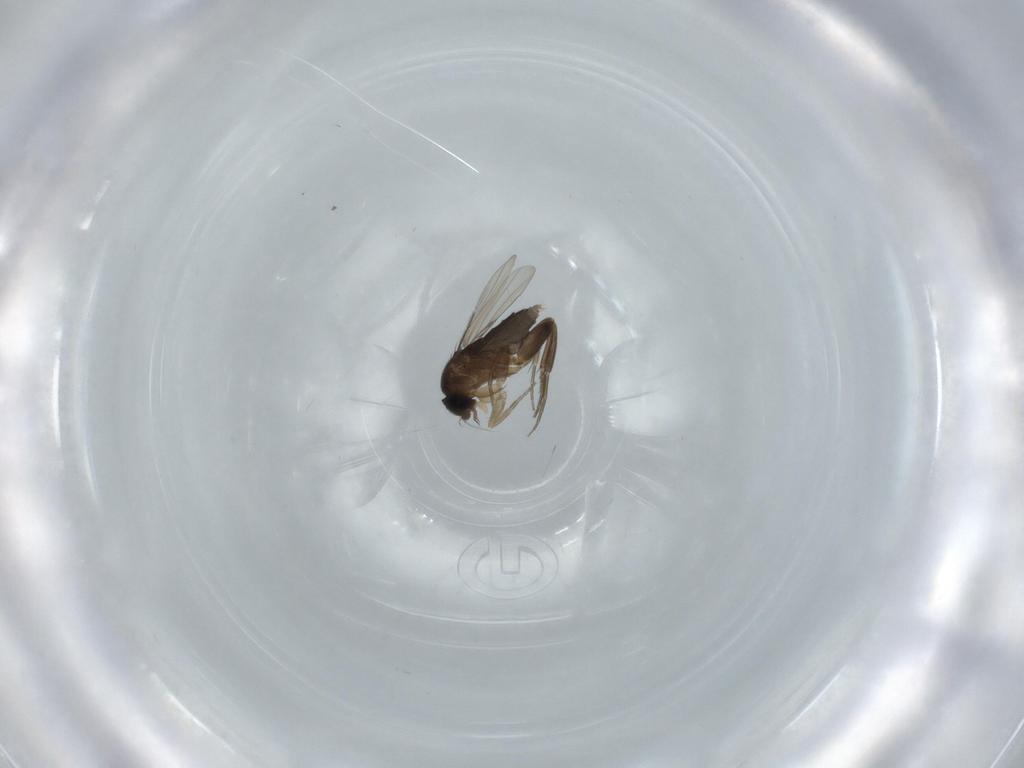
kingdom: Animalia
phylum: Arthropoda
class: Insecta
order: Diptera
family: Phoridae
